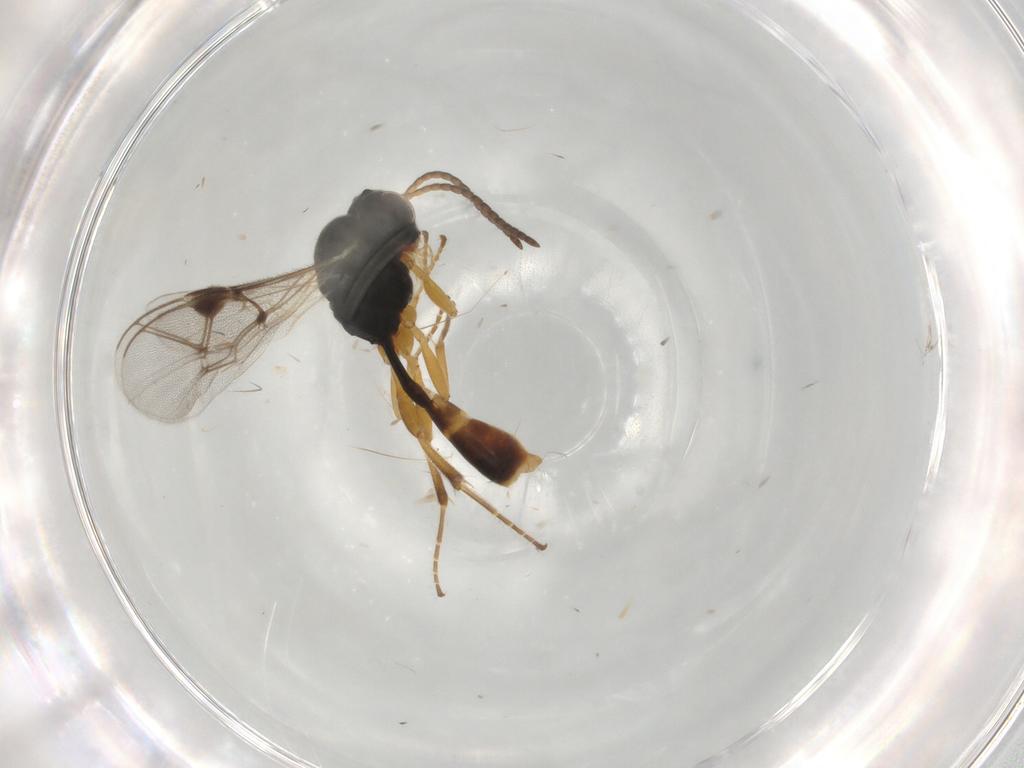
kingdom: Animalia
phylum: Arthropoda
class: Insecta
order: Hymenoptera
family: Ichneumonidae
